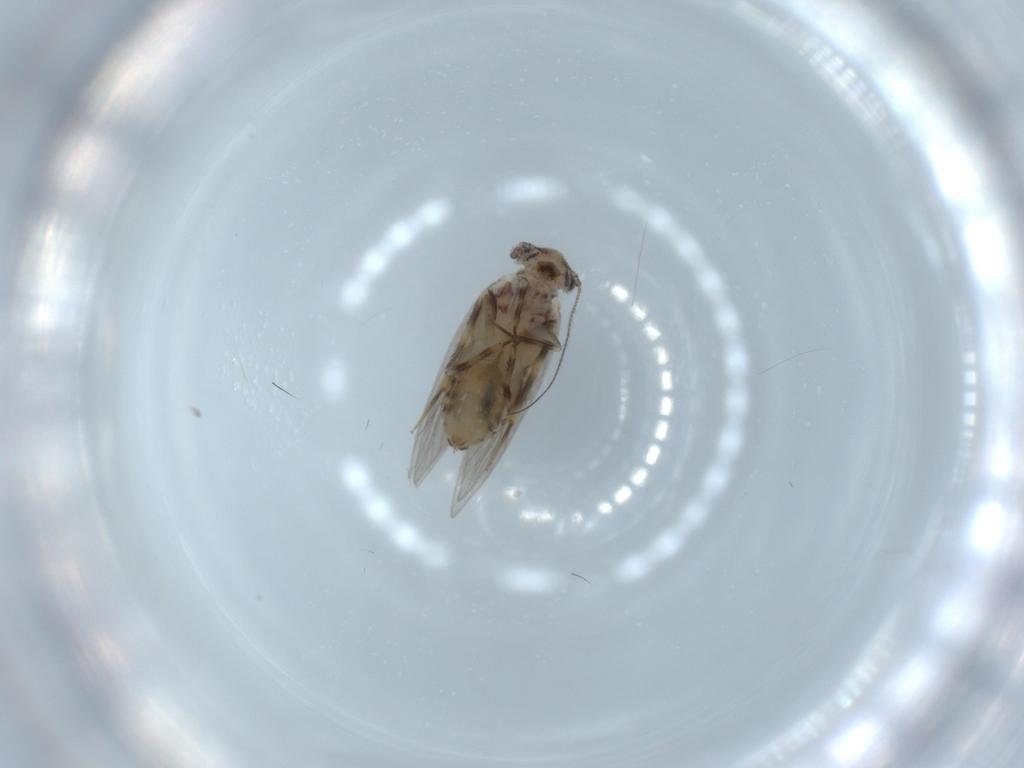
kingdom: Animalia
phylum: Arthropoda
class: Insecta
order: Psocodea
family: Lepidopsocidae
